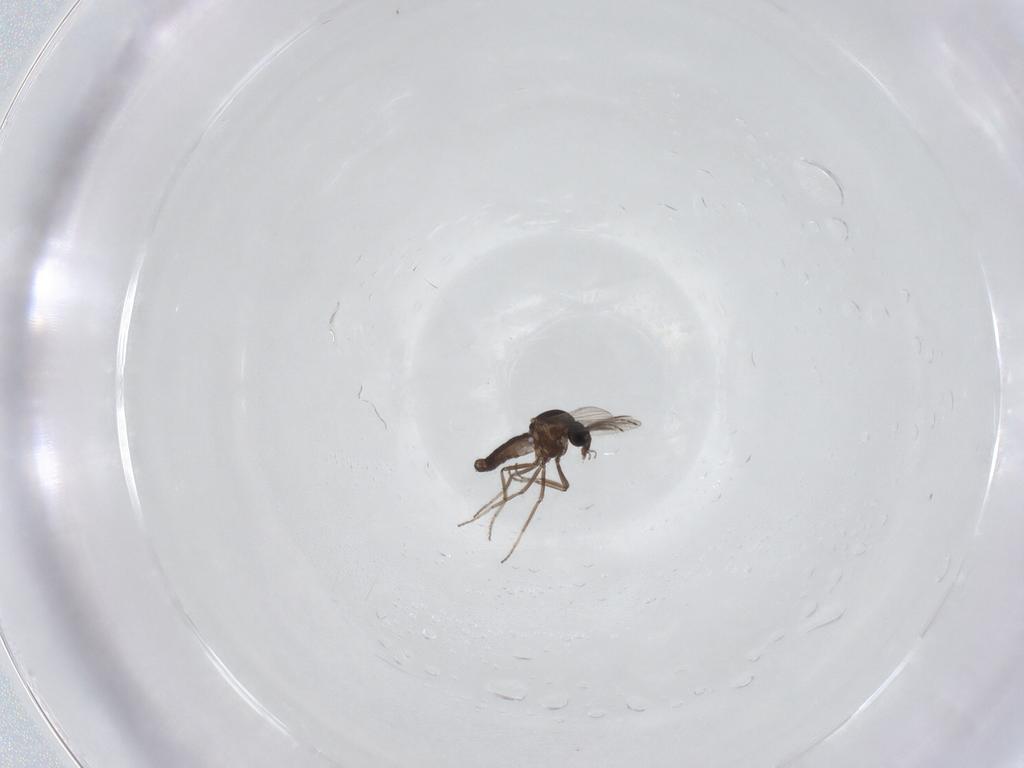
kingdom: Animalia
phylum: Arthropoda
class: Insecta
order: Diptera
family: Ceratopogonidae
